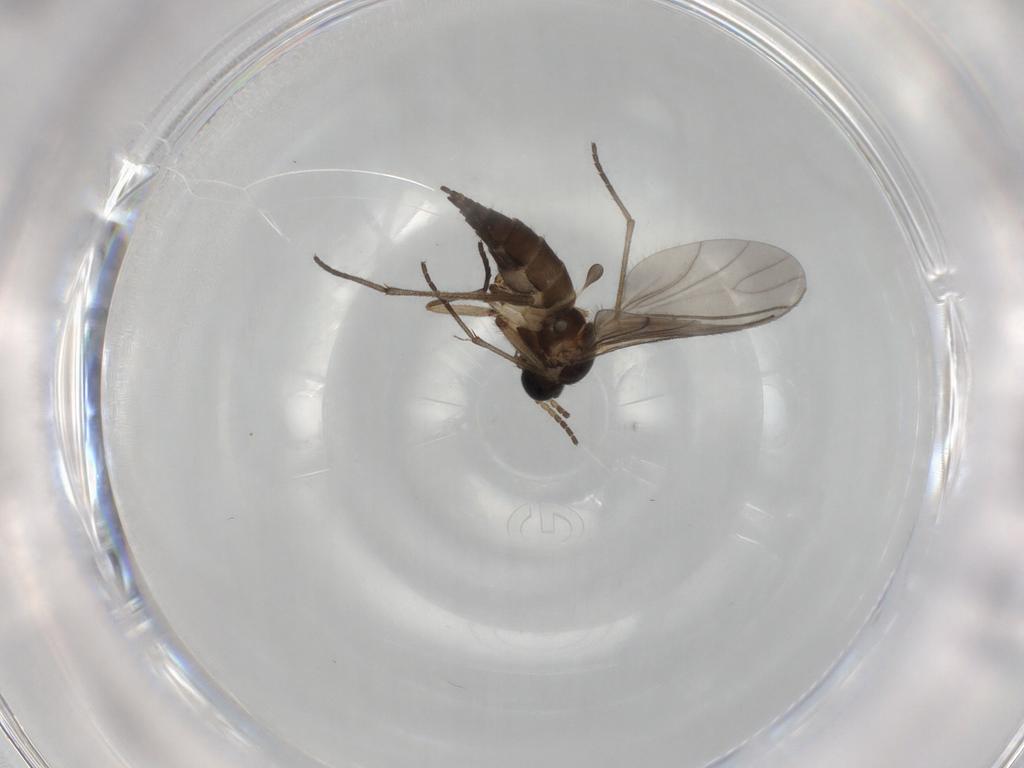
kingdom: Animalia
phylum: Arthropoda
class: Insecta
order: Diptera
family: Sciaridae
